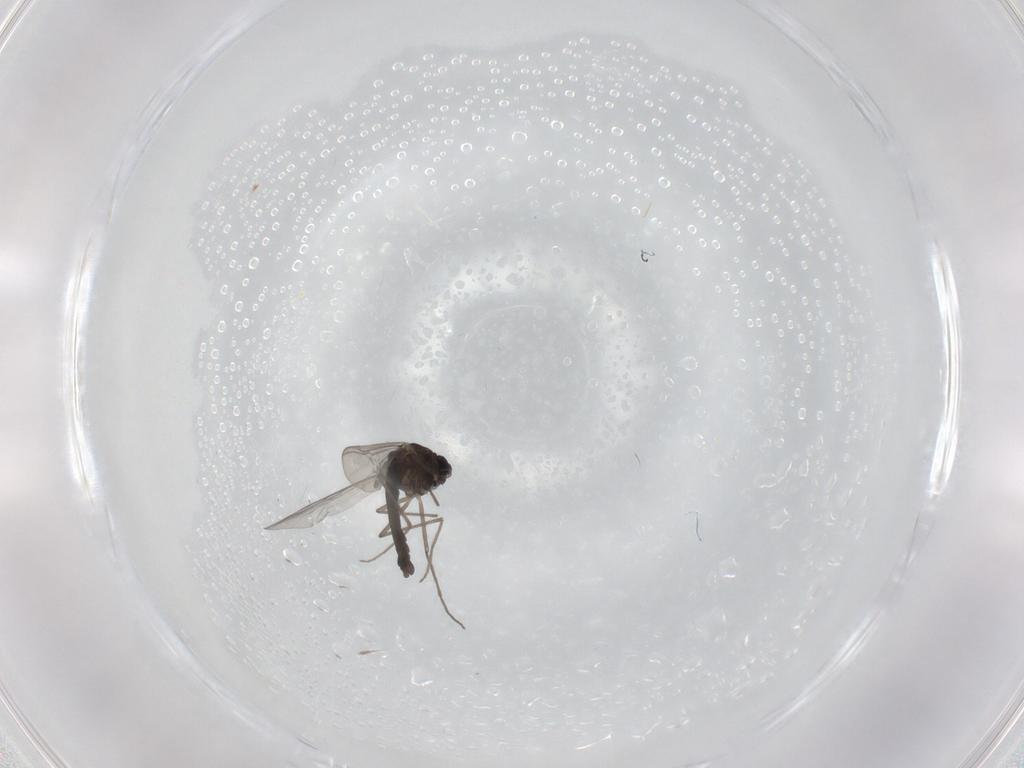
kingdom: Animalia
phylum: Arthropoda
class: Insecta
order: Diptera
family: Chironomidae
